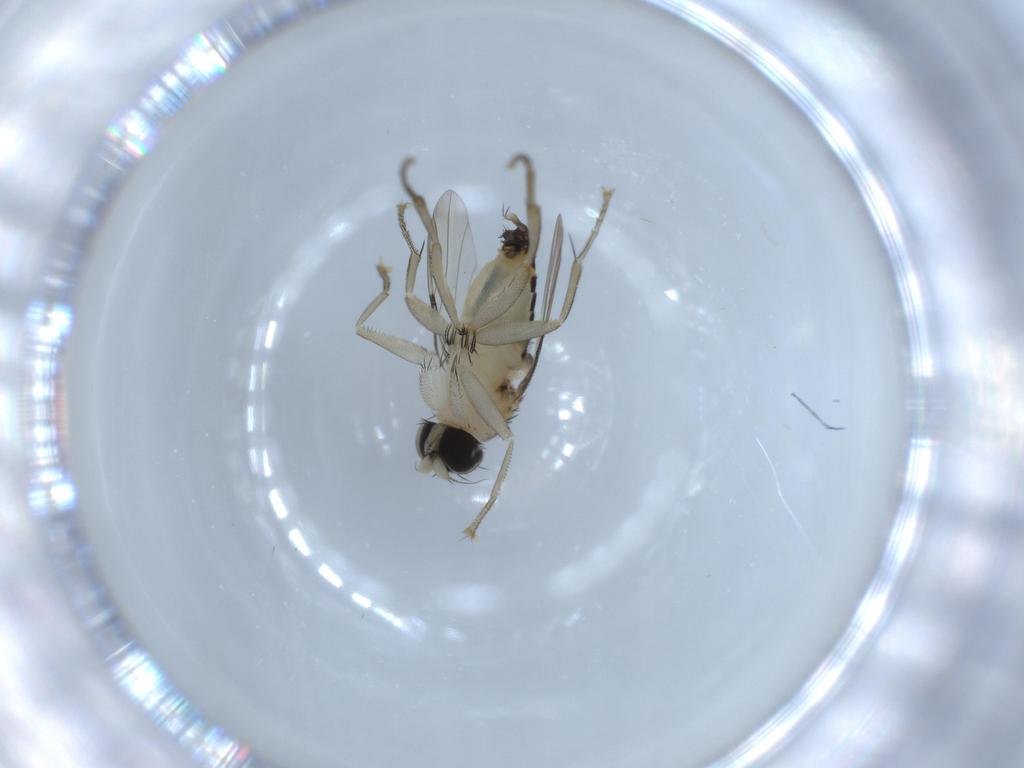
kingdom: Animalia
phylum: Arthropoda
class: Insecta
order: Diptera
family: Phoridae
